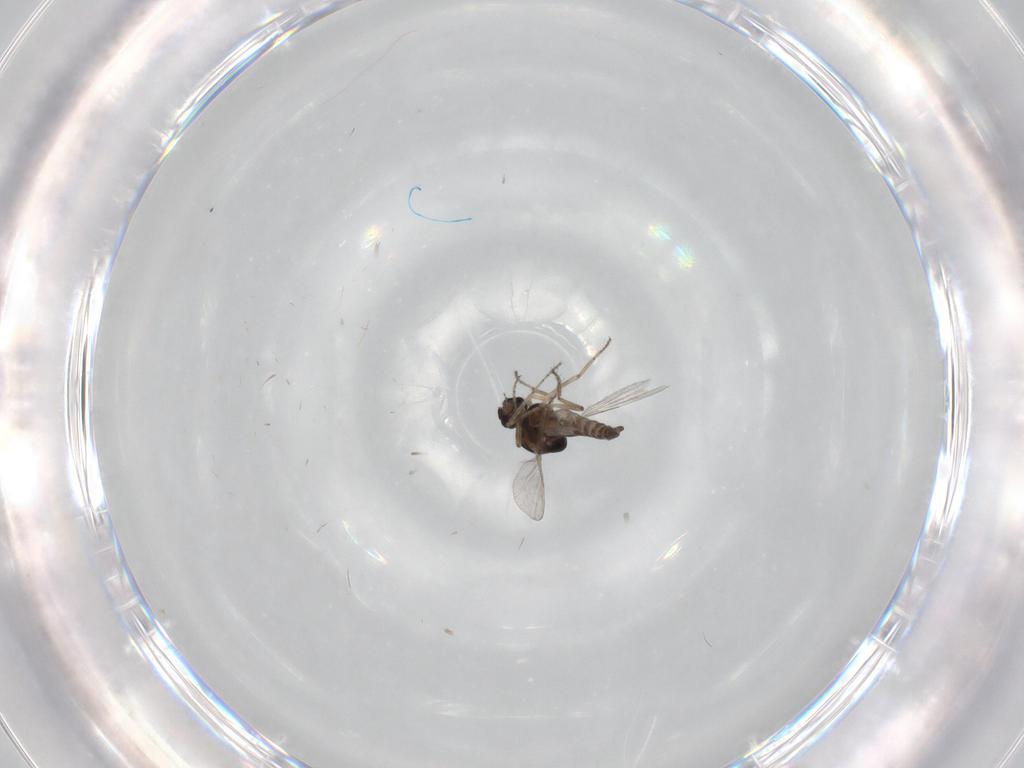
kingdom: Animalia
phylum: Arthropoda
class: Insecta
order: Diptera
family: Ceratopogonidae
